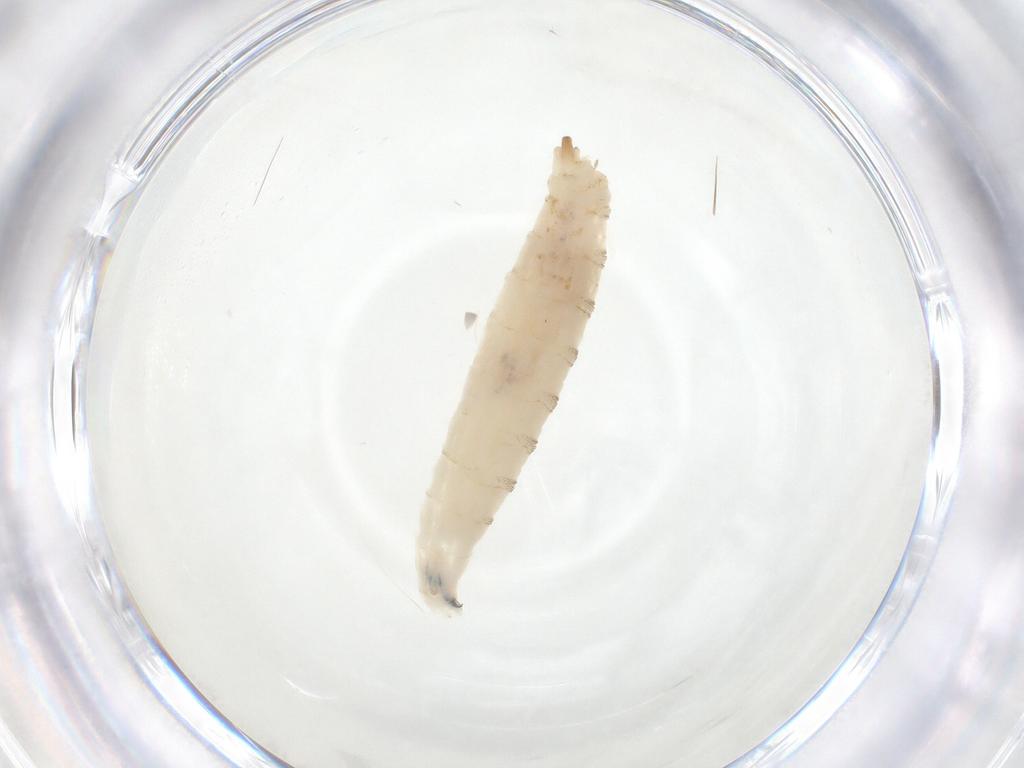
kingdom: Animalia
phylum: Arthropoda
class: Insecta
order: Diptera
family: Drosophilidae
